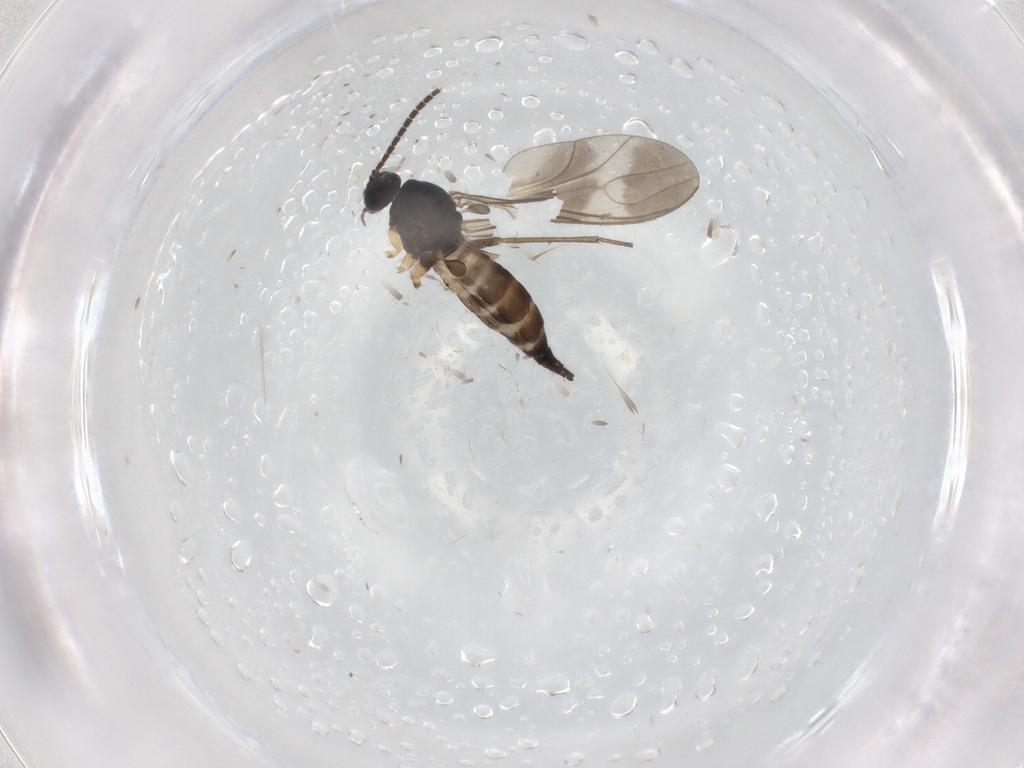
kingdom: Animalia
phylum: Arthropoda
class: Insecta
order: Diptera
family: Sciaridae
